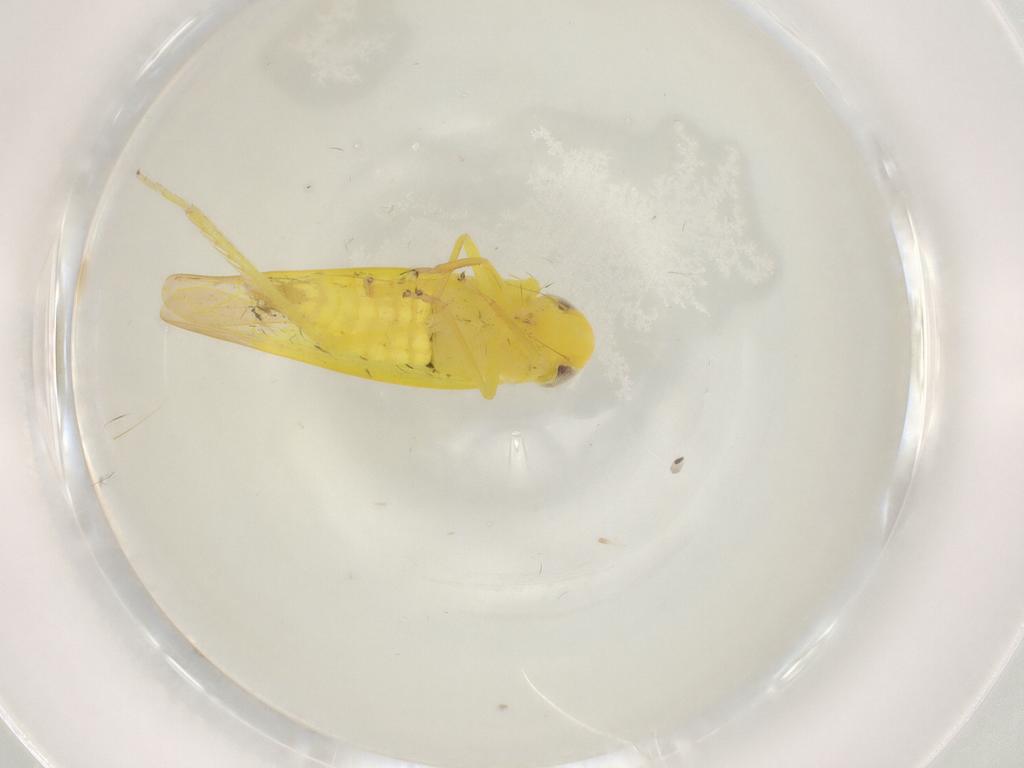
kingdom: Animalia
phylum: Arthropoda
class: Insecta
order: Hemiptera
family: Cicadellidae
